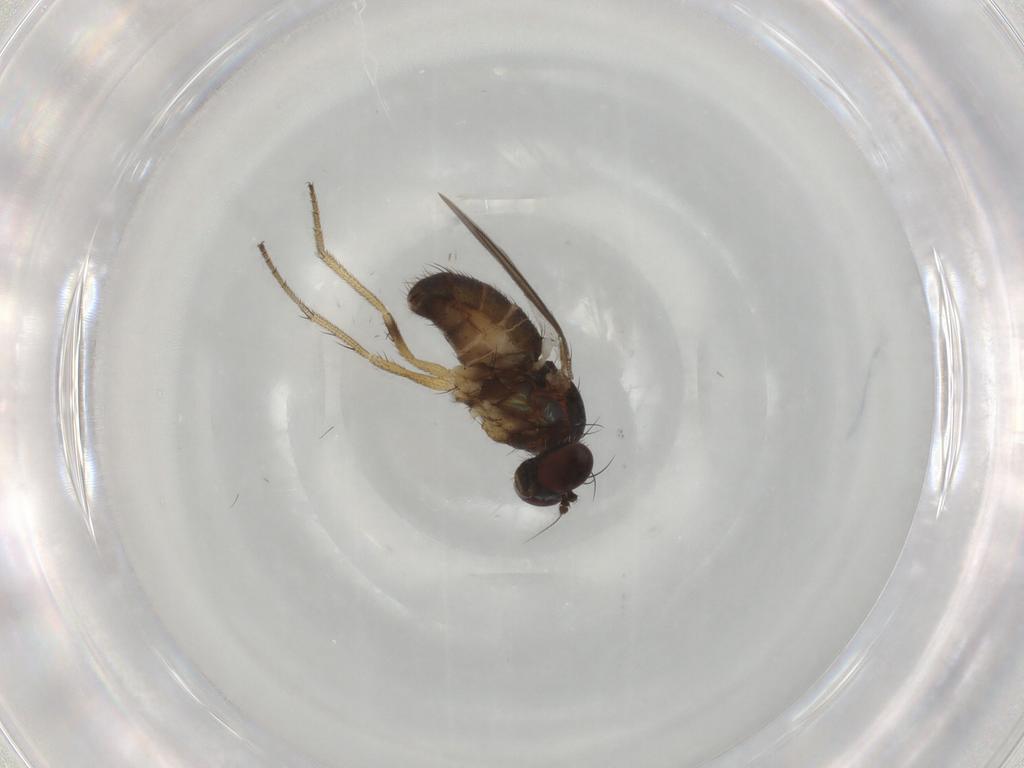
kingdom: Animalia
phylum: Arthropoda
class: Insecta
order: Diptera
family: Dolichopodidae
